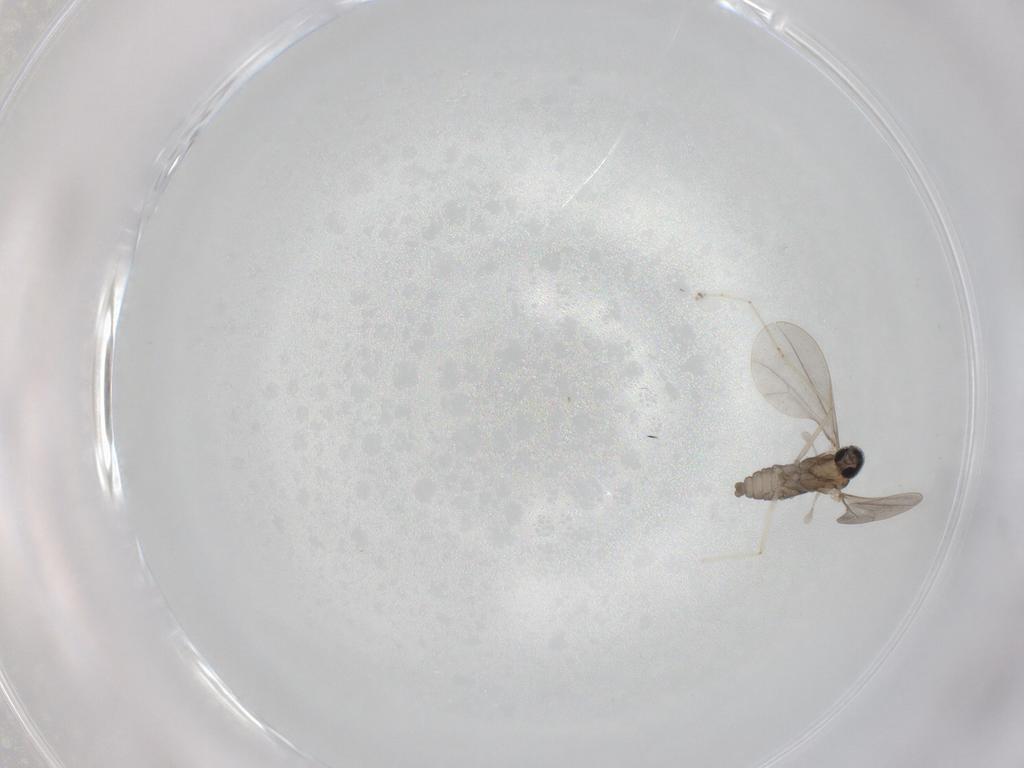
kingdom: Animalia
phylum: Arthropoda
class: Insecta
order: Diptera
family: Cecidomyiidae
